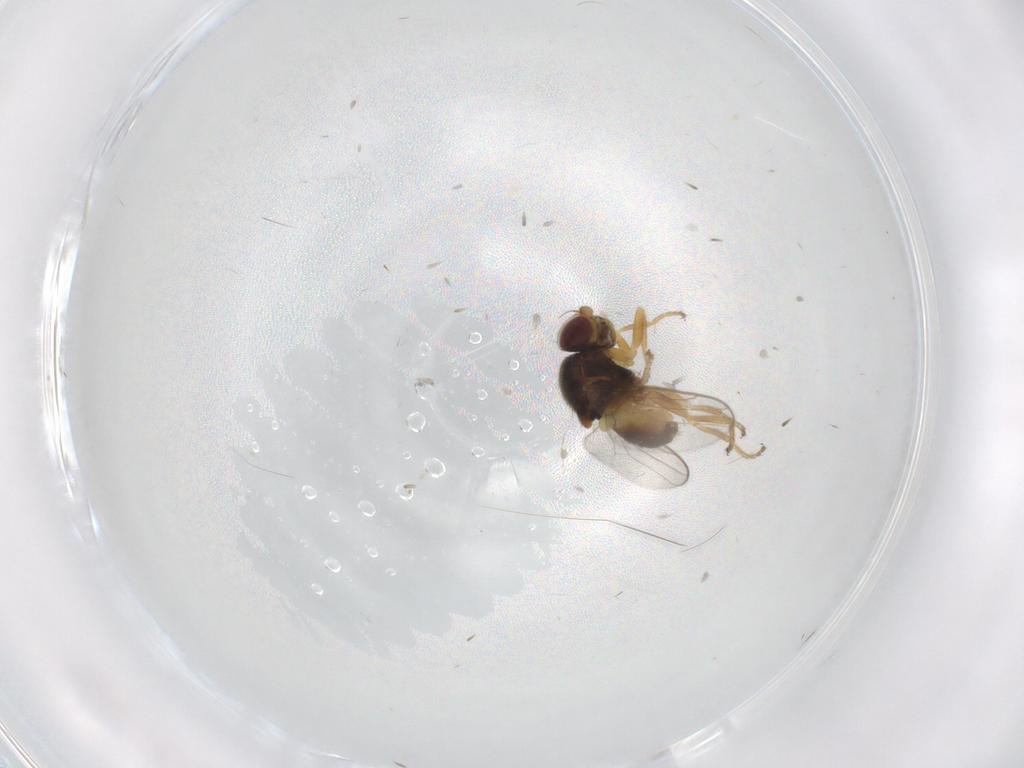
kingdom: Animalia
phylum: Arthropoda
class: Insecta
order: Diptera
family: Chloropidae
